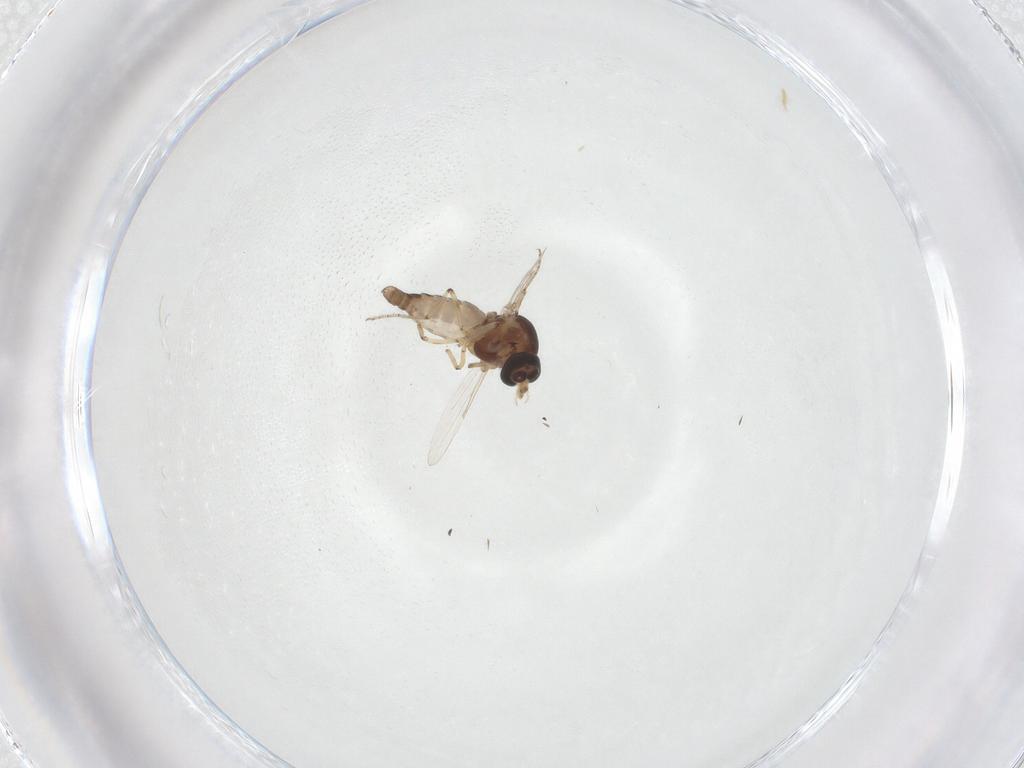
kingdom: Animalia
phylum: Arthropoda
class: Insecta
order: Diptera
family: Ceratopogonidae
